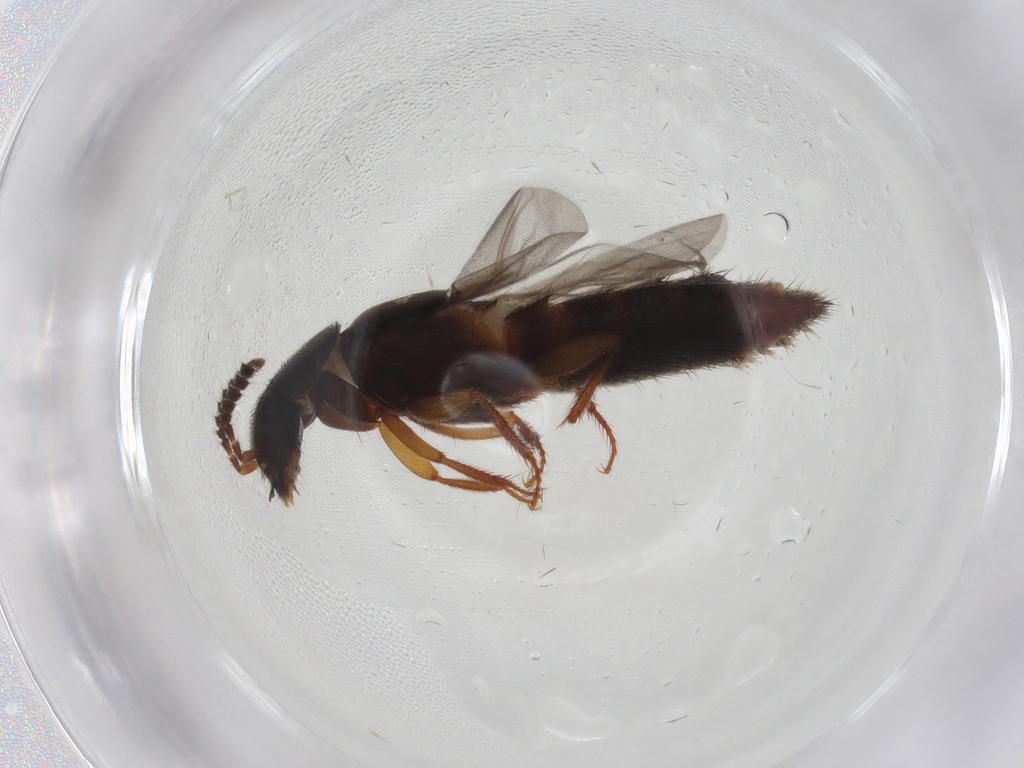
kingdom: Animalia
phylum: Arthropoda
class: Insecta
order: Coleoptera
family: Staphylinidae
